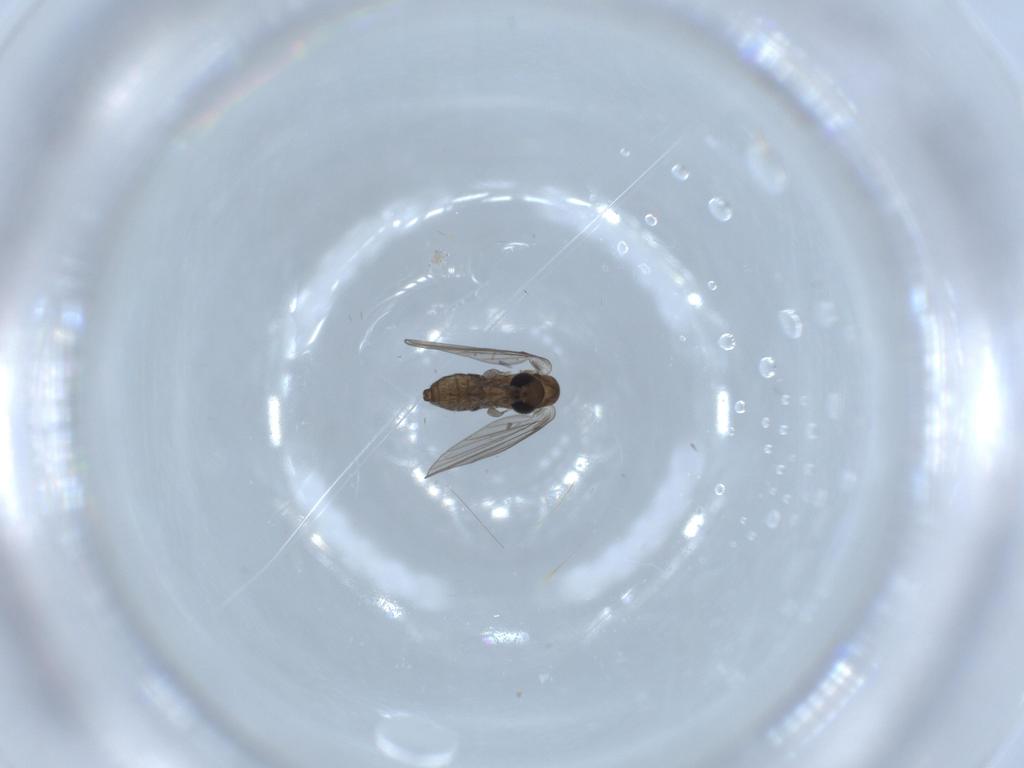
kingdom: Animalia
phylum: Arthropoda
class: Insecta
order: Diptera
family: Psychodidae
